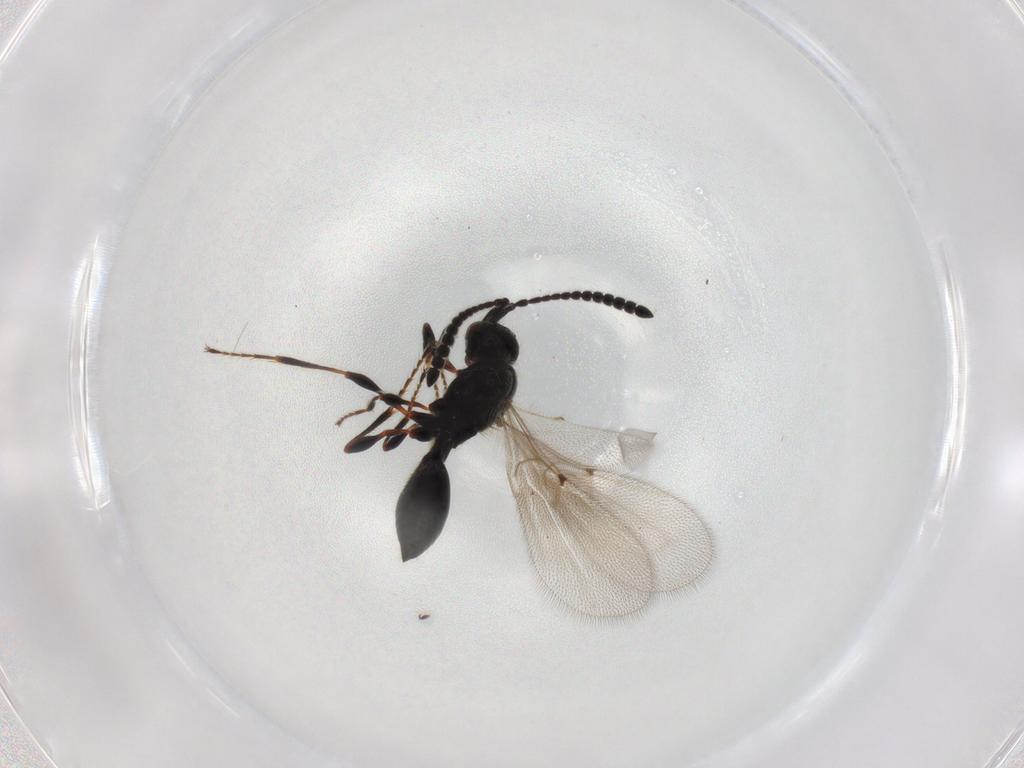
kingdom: Animalia
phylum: Arthropoda
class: Insecta
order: Hymenoptera
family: Diapriidae
